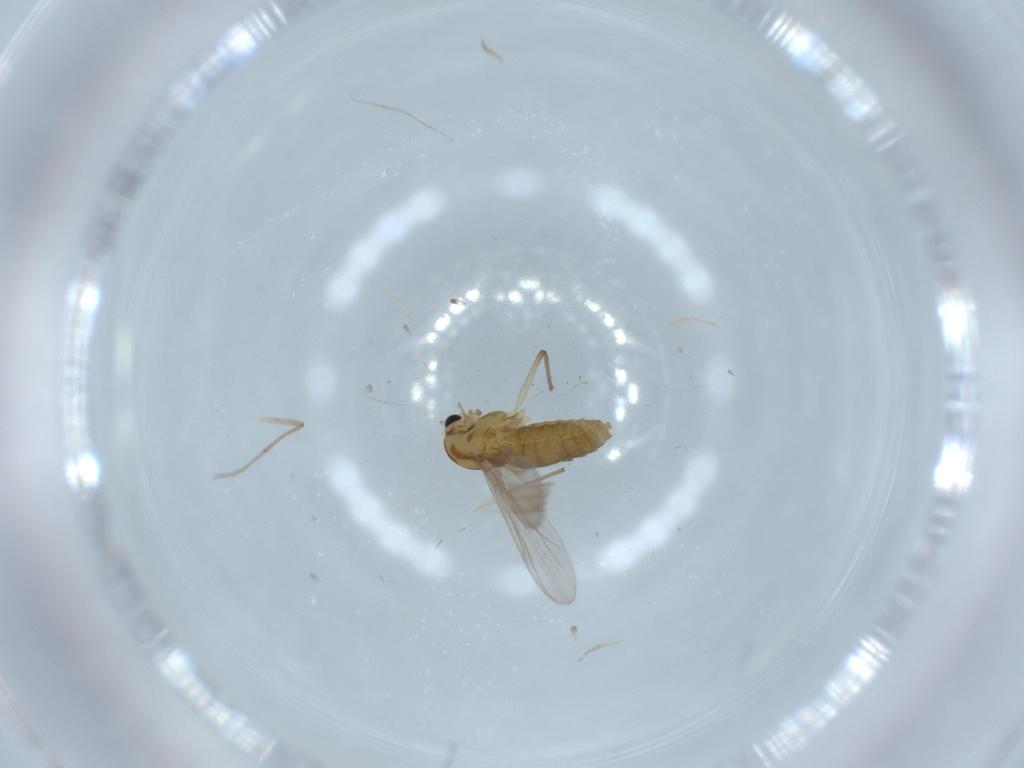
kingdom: Animalia
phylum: Arthropoda
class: Insecta
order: Diptera
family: Chironomidae
